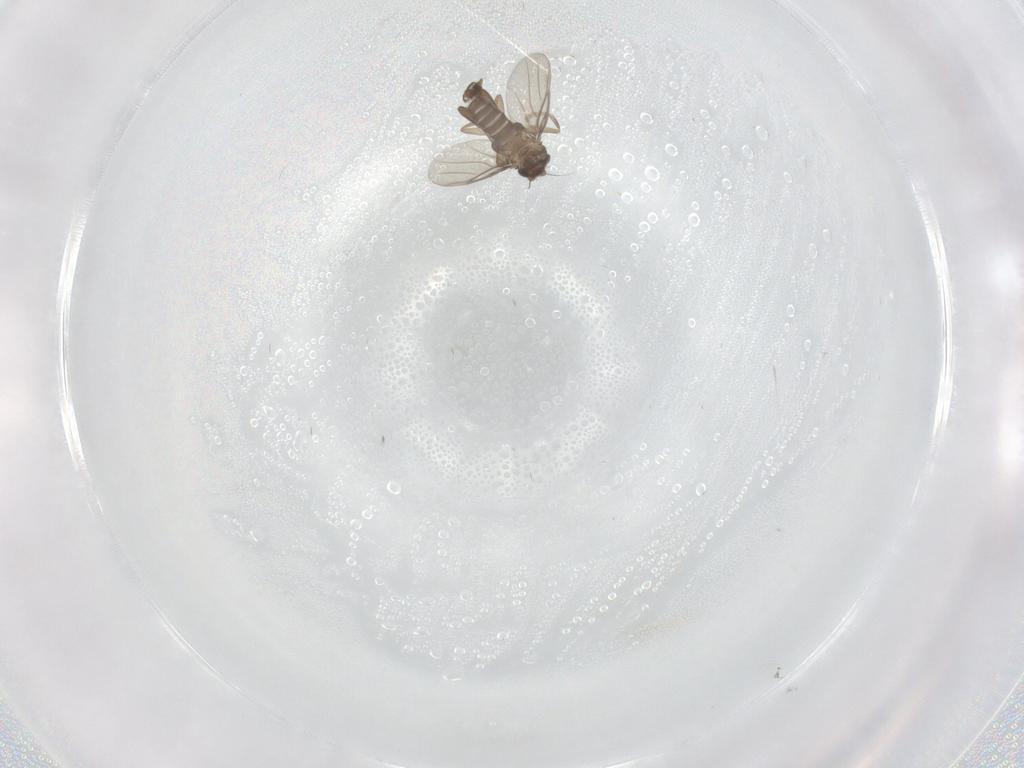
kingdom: Animalia
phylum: Arthropoda
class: Insecta
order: Diptera
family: Phoridae
